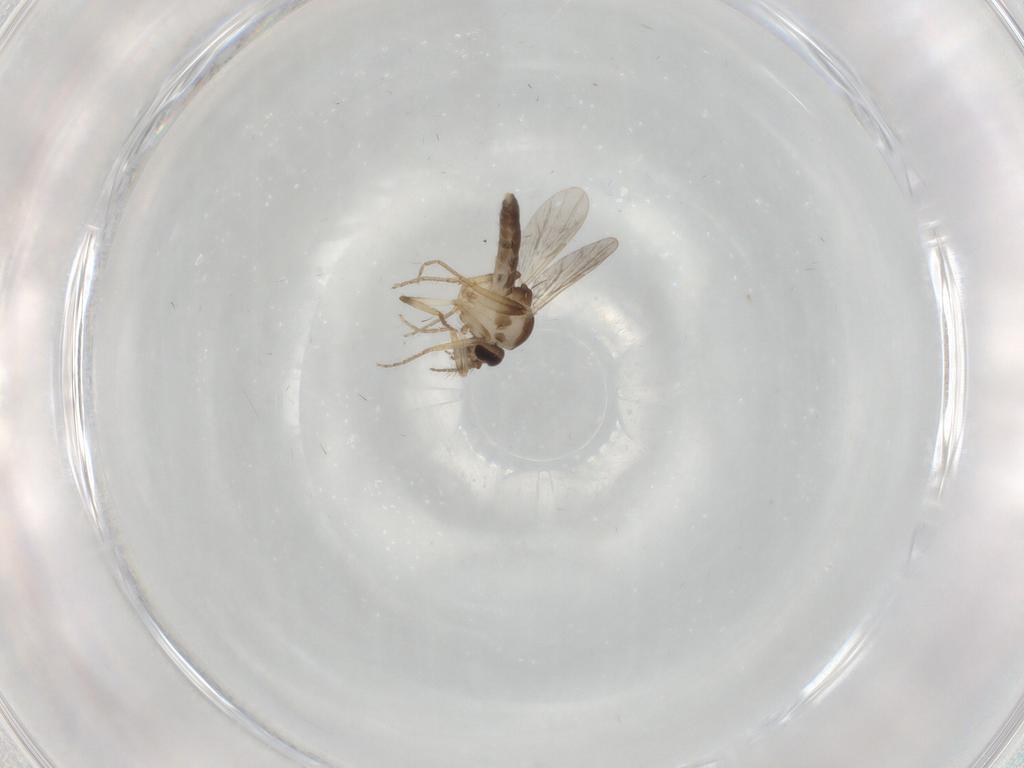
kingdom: Animalia
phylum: Arthropoda
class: Insecta
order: Diptera
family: Ceratopogonidae
